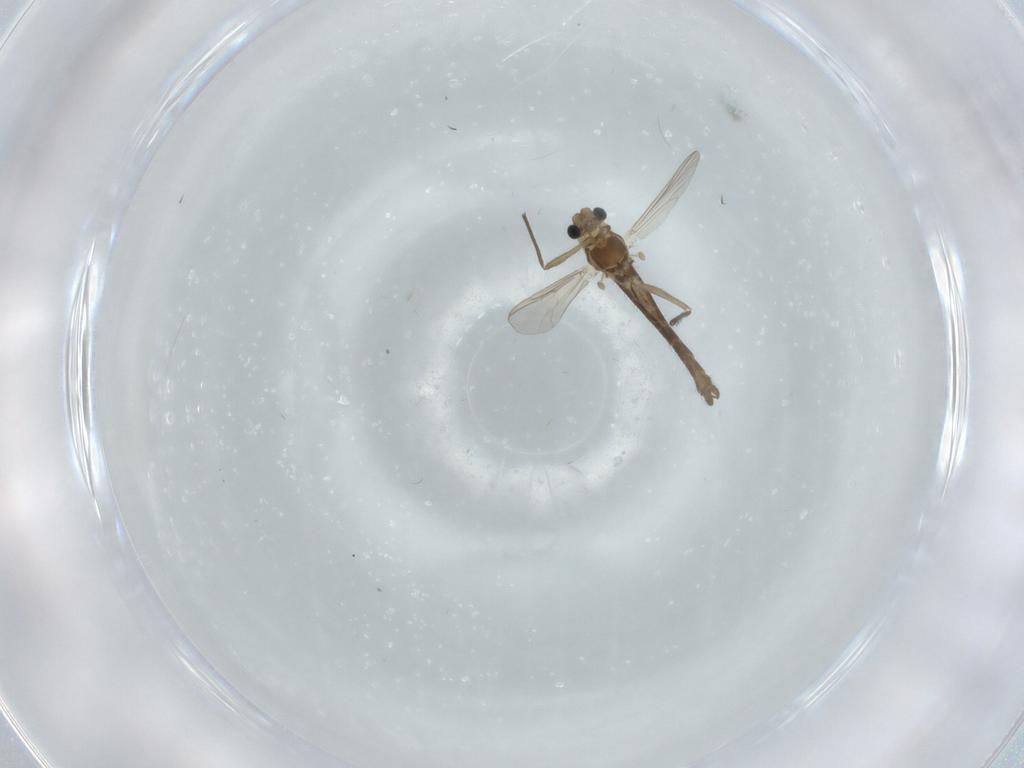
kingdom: Animalia
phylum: Arthropoda
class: Insecta
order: Diptera
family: Chironomidae
